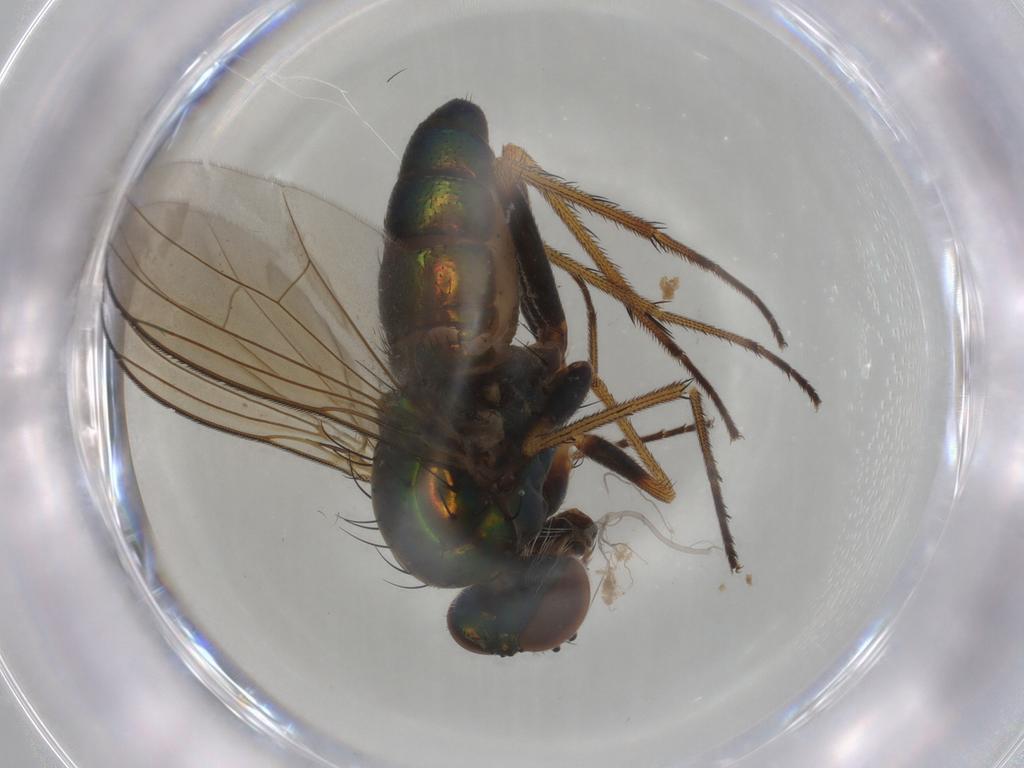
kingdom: Animalia
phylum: Arthropoda
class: Insecta
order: Diptera
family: Dolichopodidae
